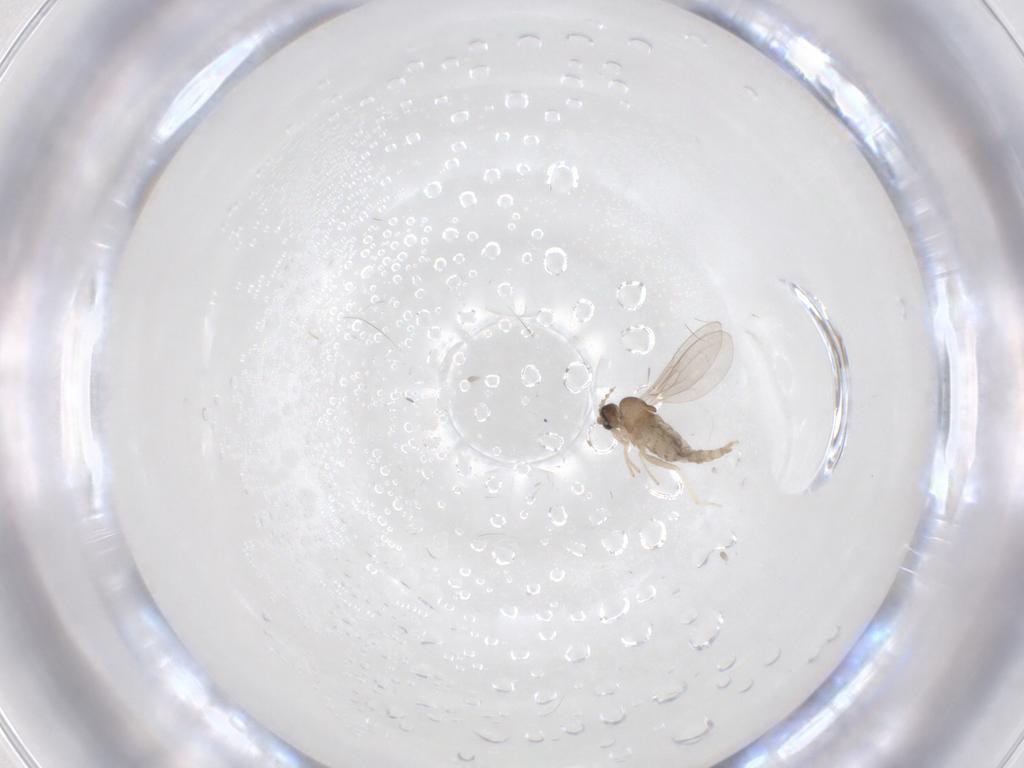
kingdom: Animalia
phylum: Arthropoda
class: Insecta
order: Diptera
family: Cecidomyiidae
